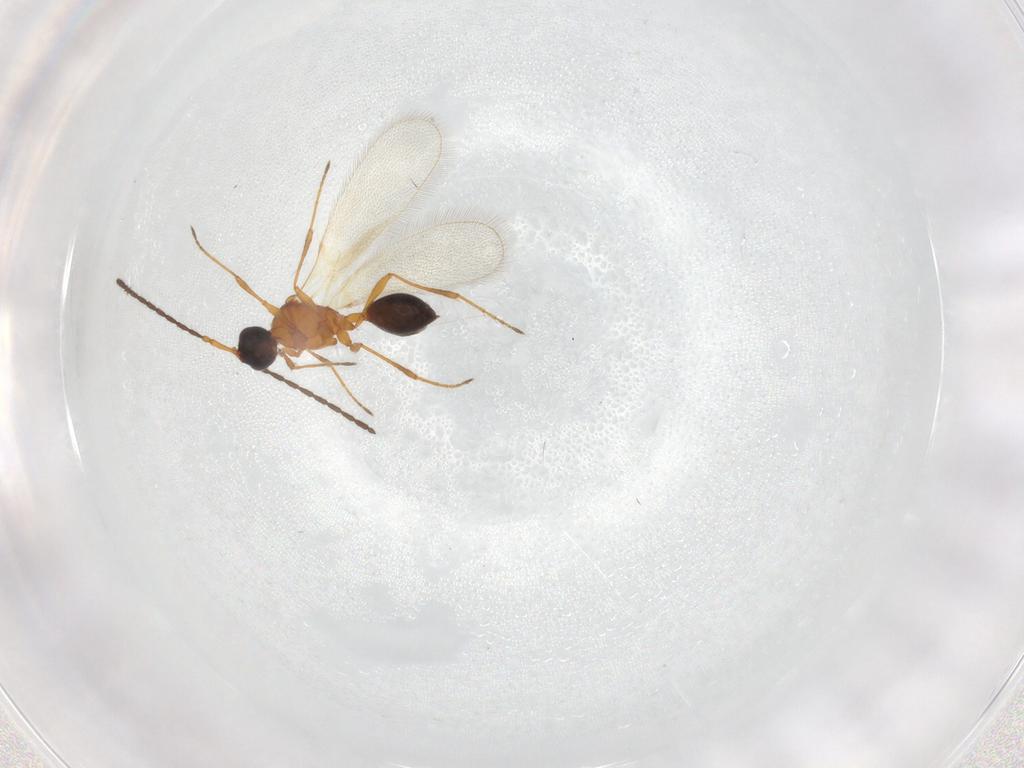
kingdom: Animalia
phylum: Arthropoda
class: Insecta
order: Hymenoptera
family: Diapriidae
